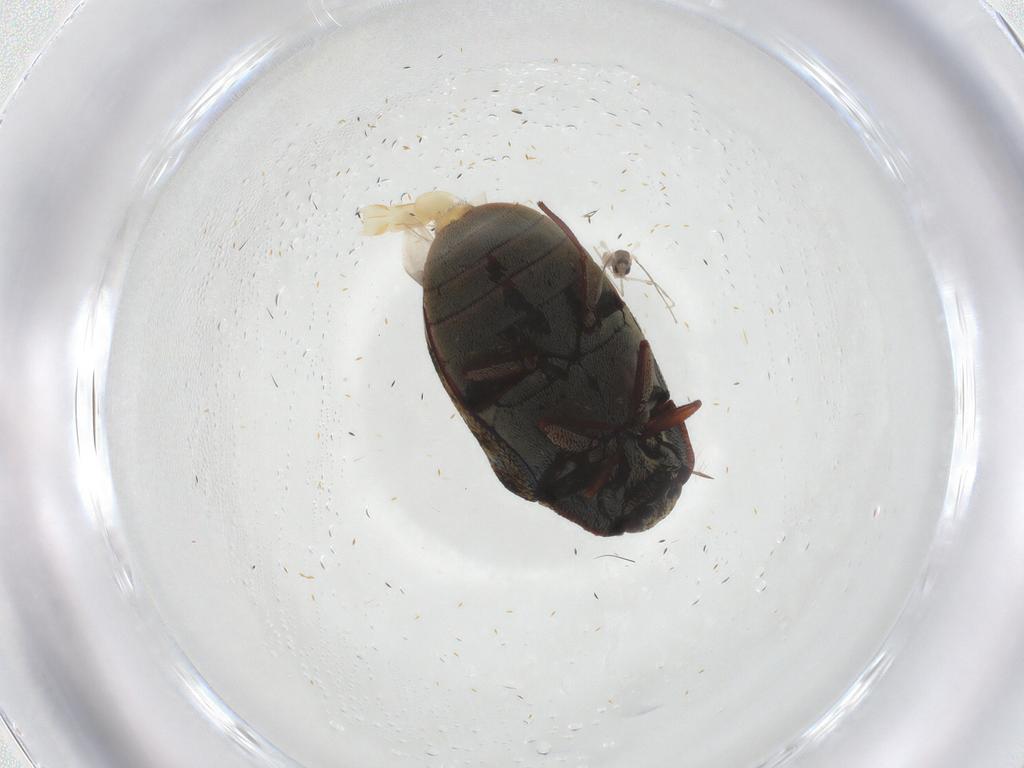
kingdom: Animalia
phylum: Arthropoda
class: Insecta
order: Coleoptera
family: Dermestidae
